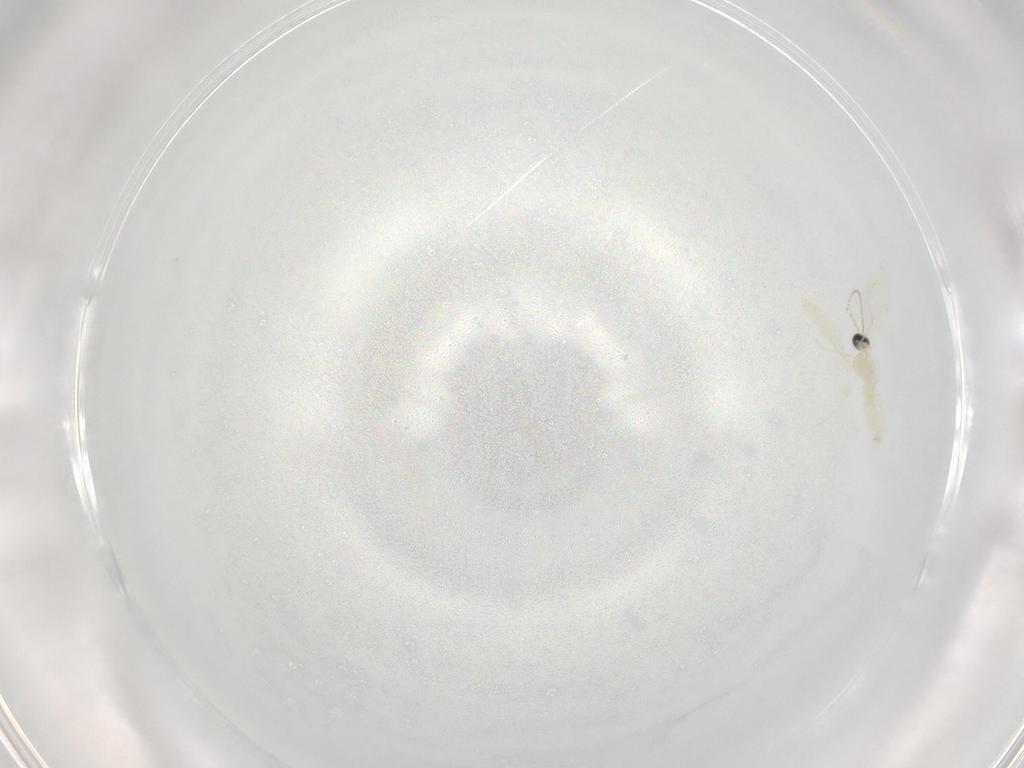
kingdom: Animalia
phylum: Arthropoda
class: Insecta
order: Diptera
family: Cecidomyiidae
